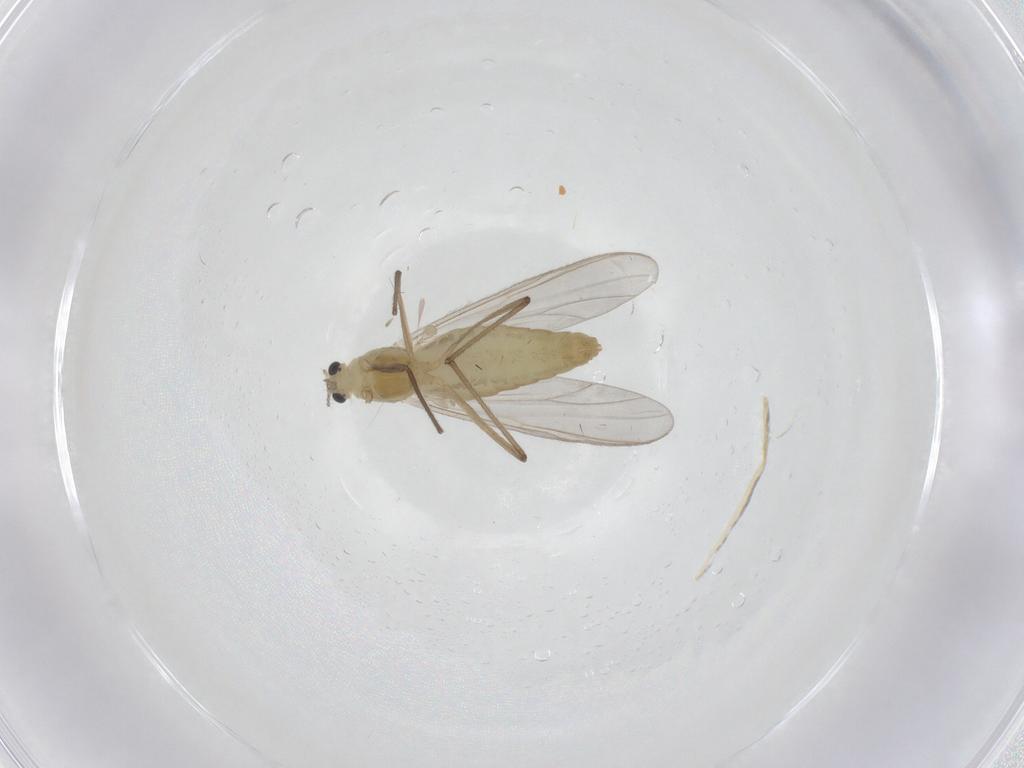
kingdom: Animalia
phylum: Arthropoda
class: Insecta
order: Diptera
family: Chironomidae
